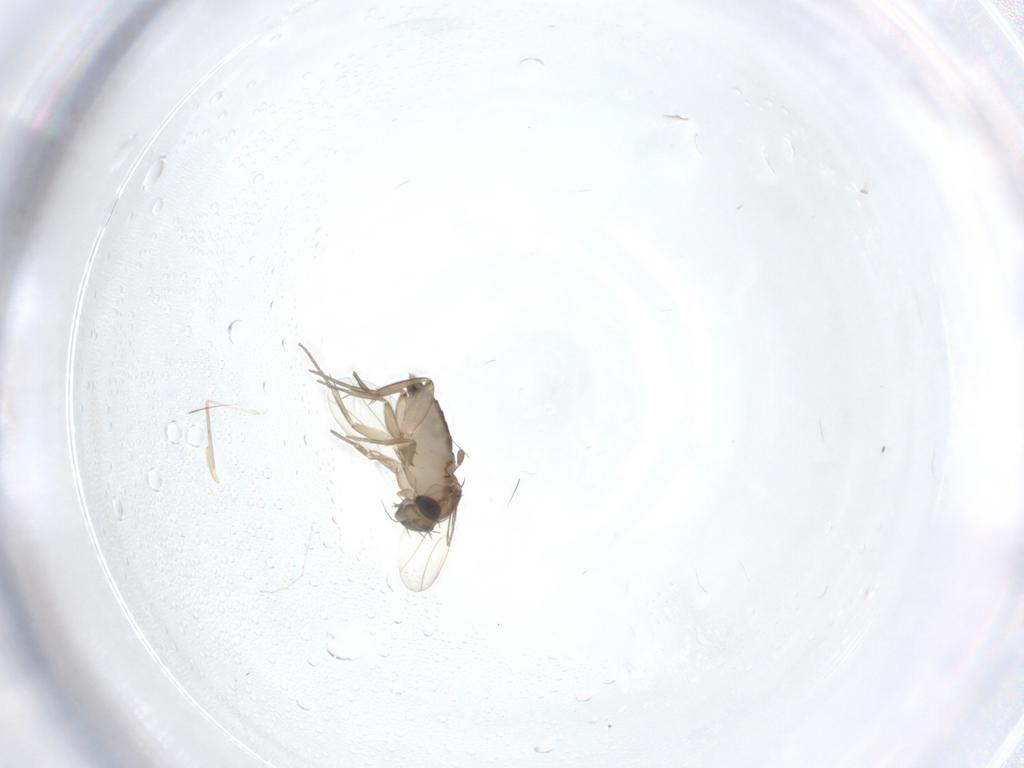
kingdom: Animalia
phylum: Arthropoda
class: Insecta
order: Diptera
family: Phoridae
